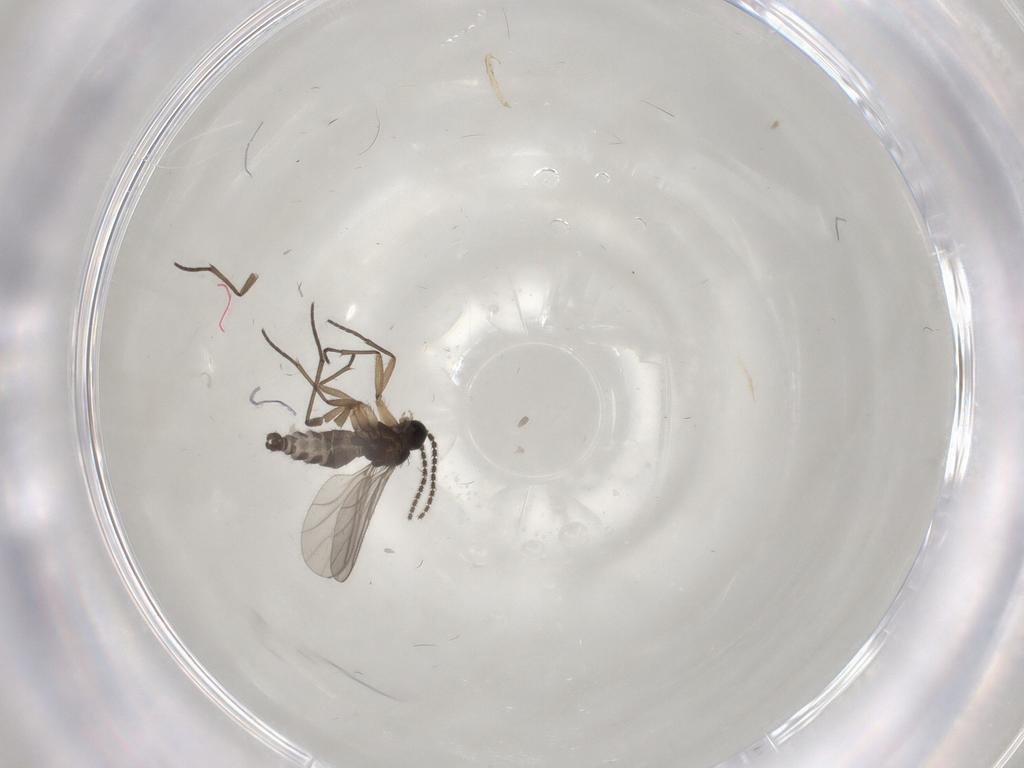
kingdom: Animalia
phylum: Arthropoda
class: Insecta
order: Diptera
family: Sciaridae
